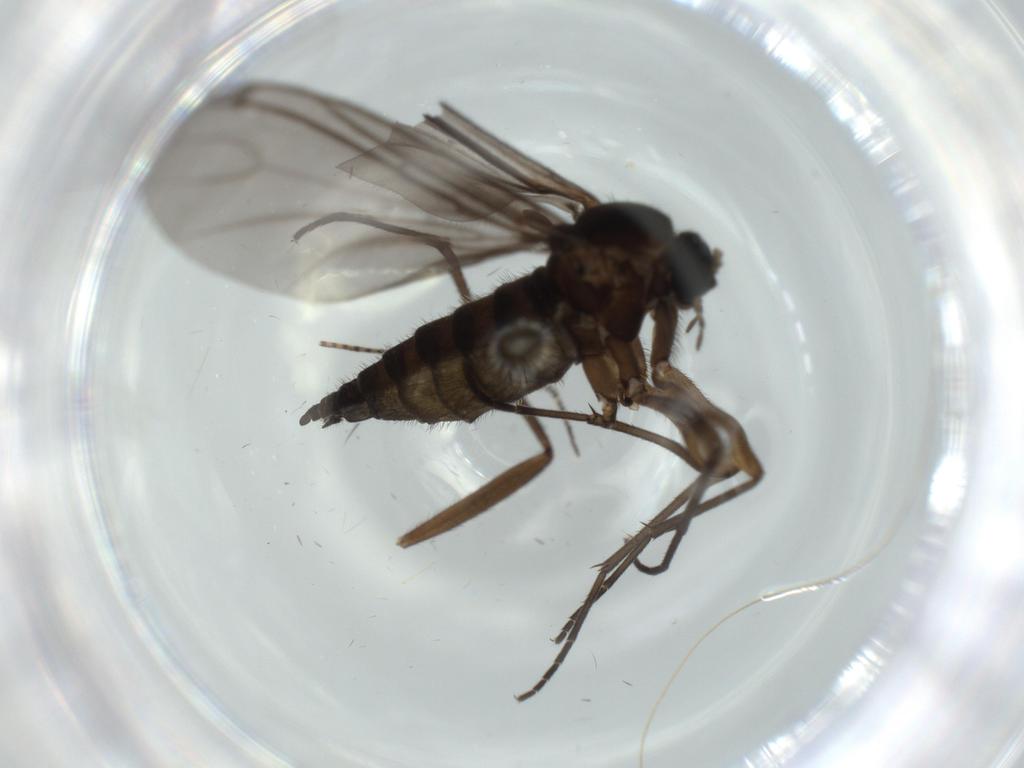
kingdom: Animalia
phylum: Arthropoda
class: Insecta
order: Diptera
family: Sciaridae
